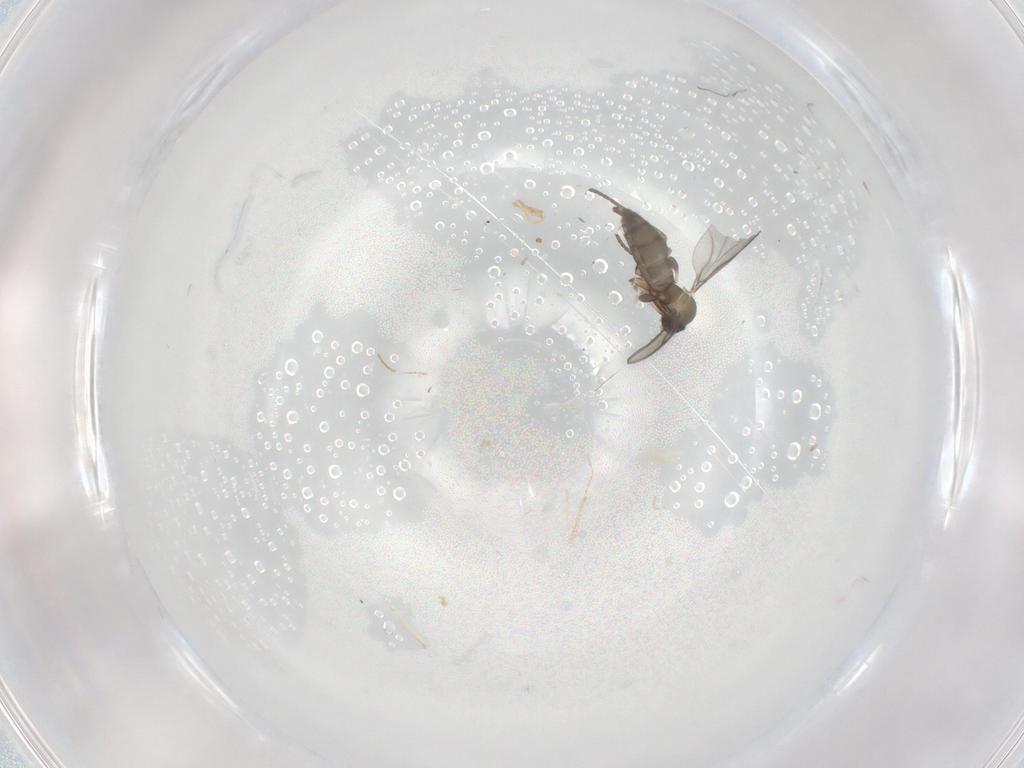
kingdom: Animalia
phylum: Arthropoda
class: Insecta
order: Diptera
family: Sciaridae
